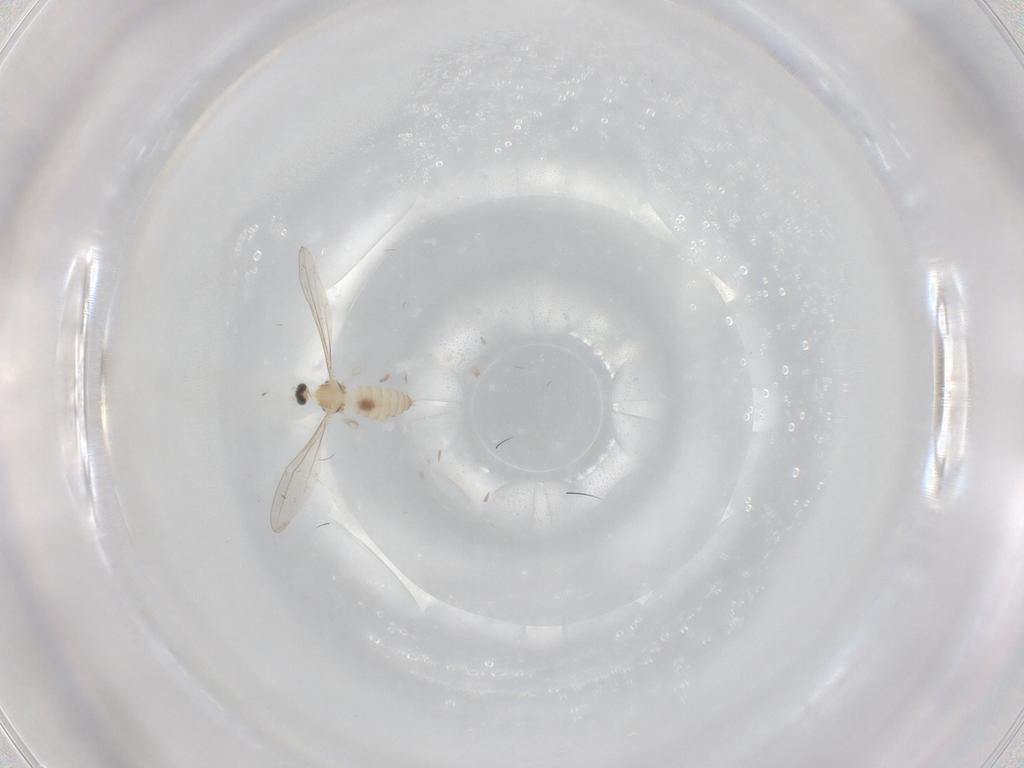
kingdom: Animalia
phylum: Arthropoda
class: Insecta
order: Diptera
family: Cecidomyiidae
